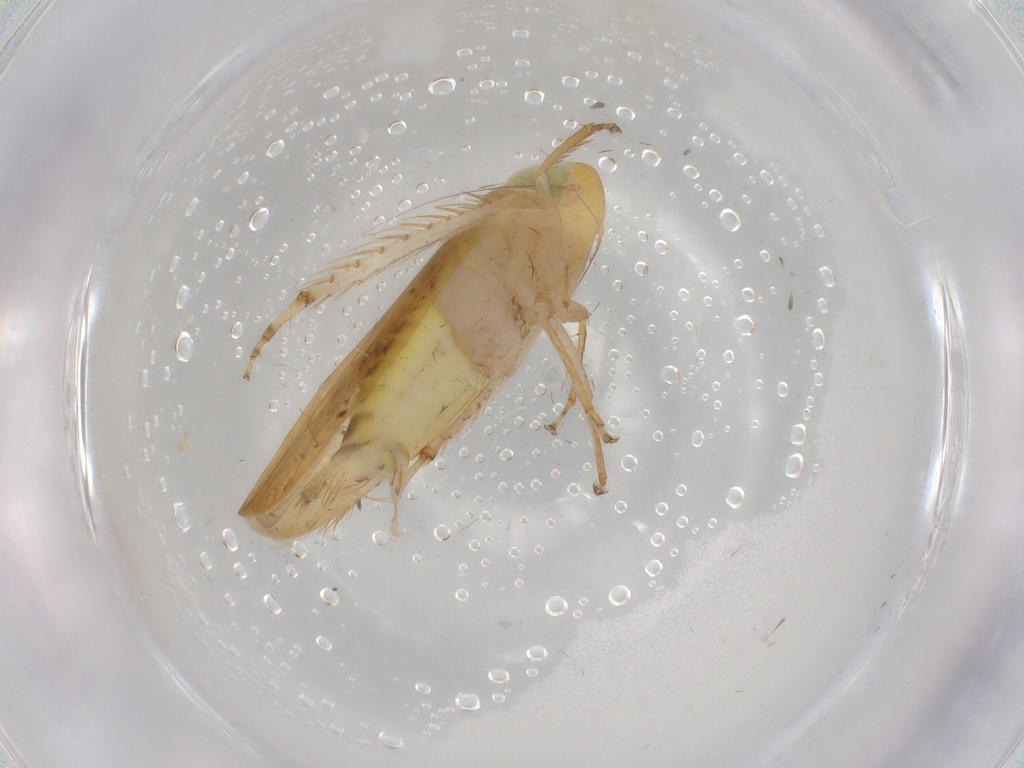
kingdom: Animalia
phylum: Arthropoda
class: Insecta
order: Hemiptera
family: Cicadellidae
